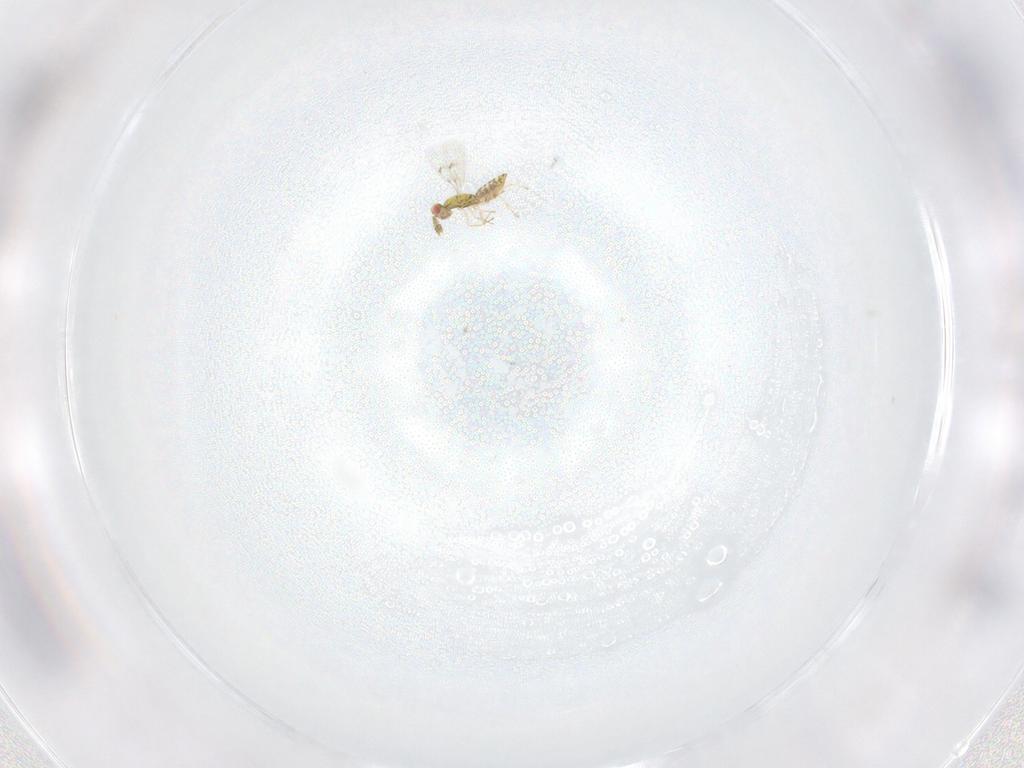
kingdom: Animalia
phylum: Arthropoda
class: Insecta
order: Hymenoptera
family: Eulophidae
